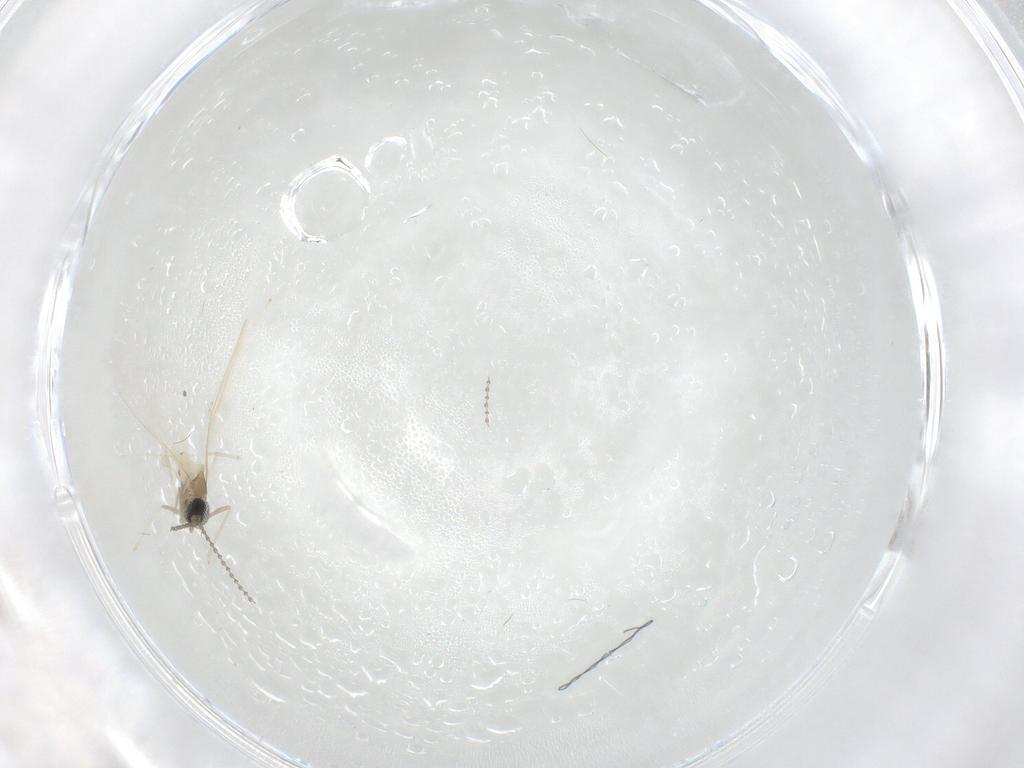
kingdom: Animalia
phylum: Arthropoda
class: Insecta
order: Diptera
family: Cecidomyiidae
